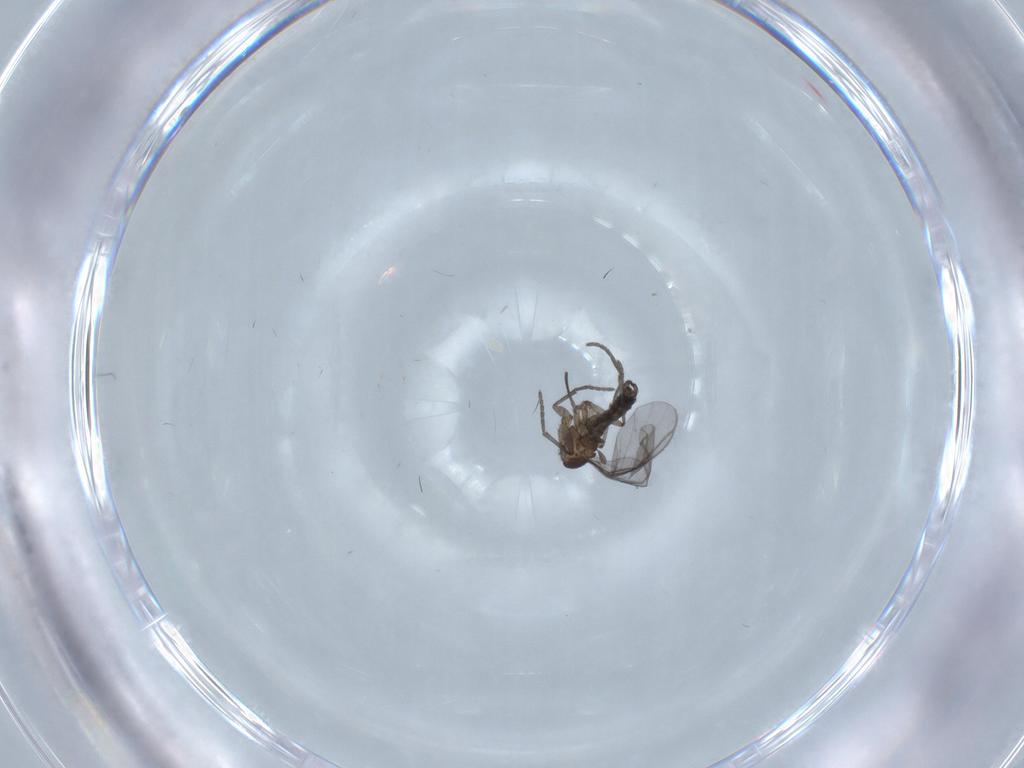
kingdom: Animalia
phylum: Arthropoda
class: Insecta
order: Diptera
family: Chironomidae
